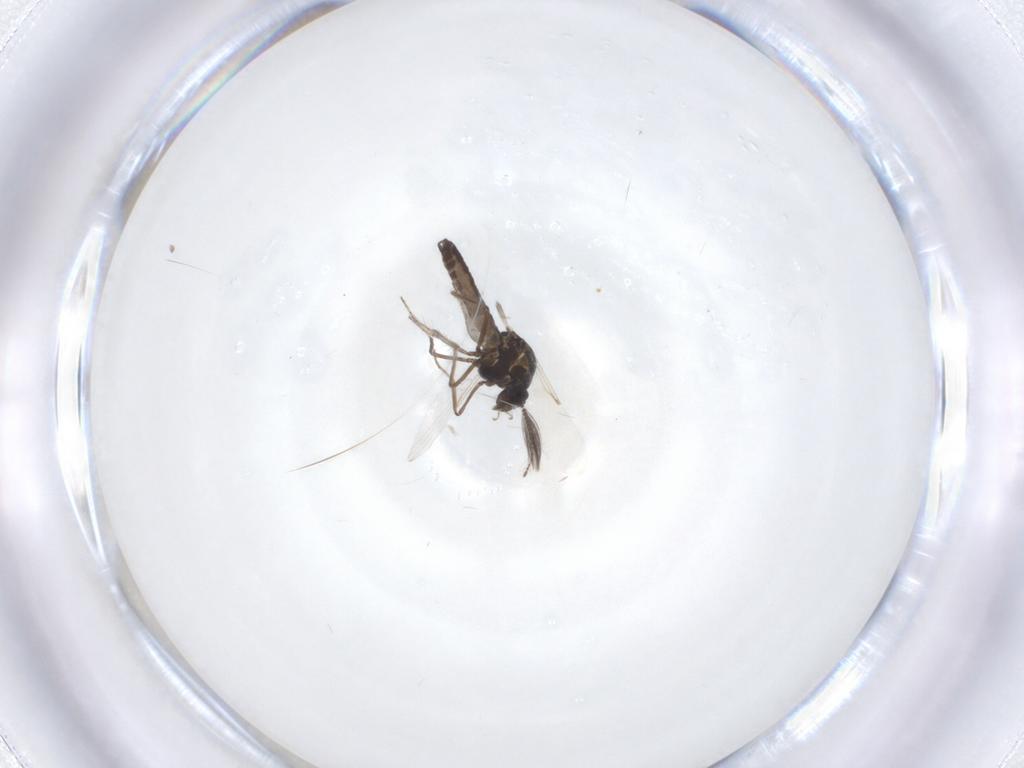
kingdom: Animalia
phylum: Arthropoda
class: Insecta
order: Diptera
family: Ceratopogonidae
